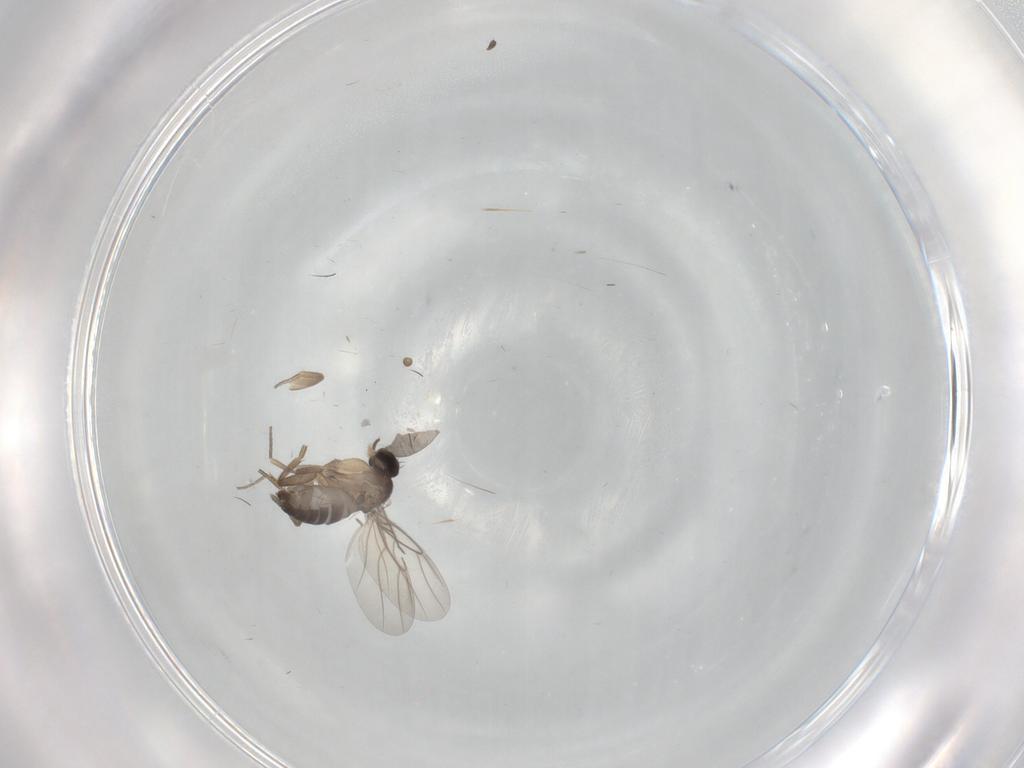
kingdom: Animalia
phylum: Arthropoda
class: Insecta
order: Diptera
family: Phoridae
